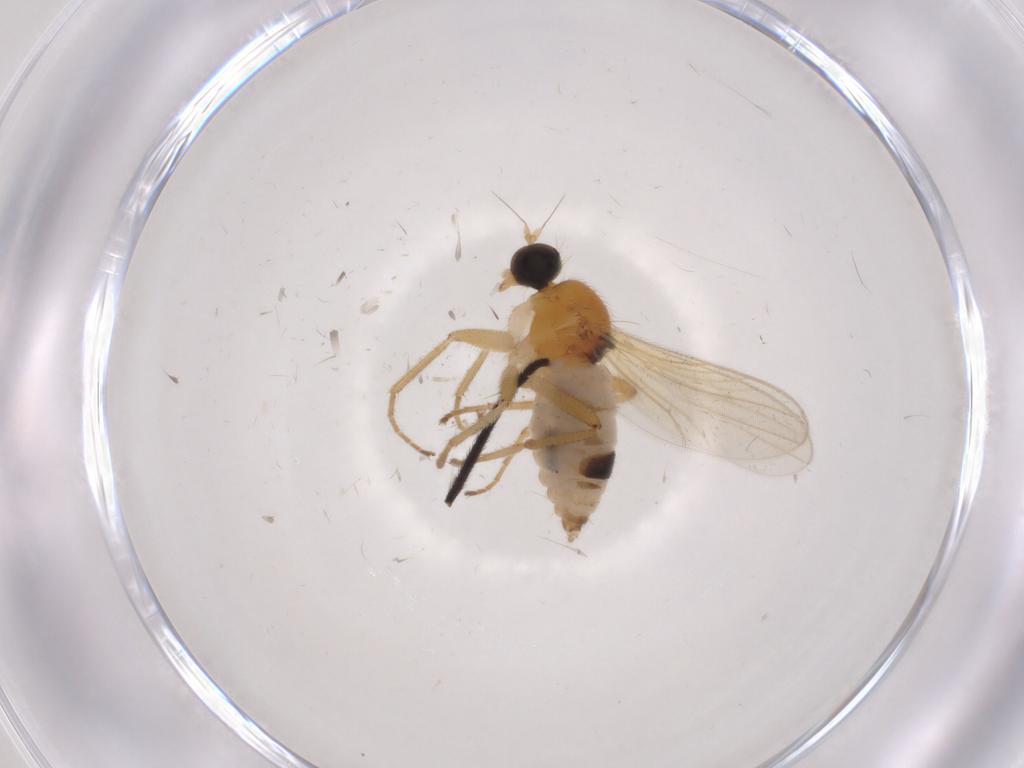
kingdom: Animalia
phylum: Arthropoda
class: Insecta
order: Diptera
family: Hybotidae
